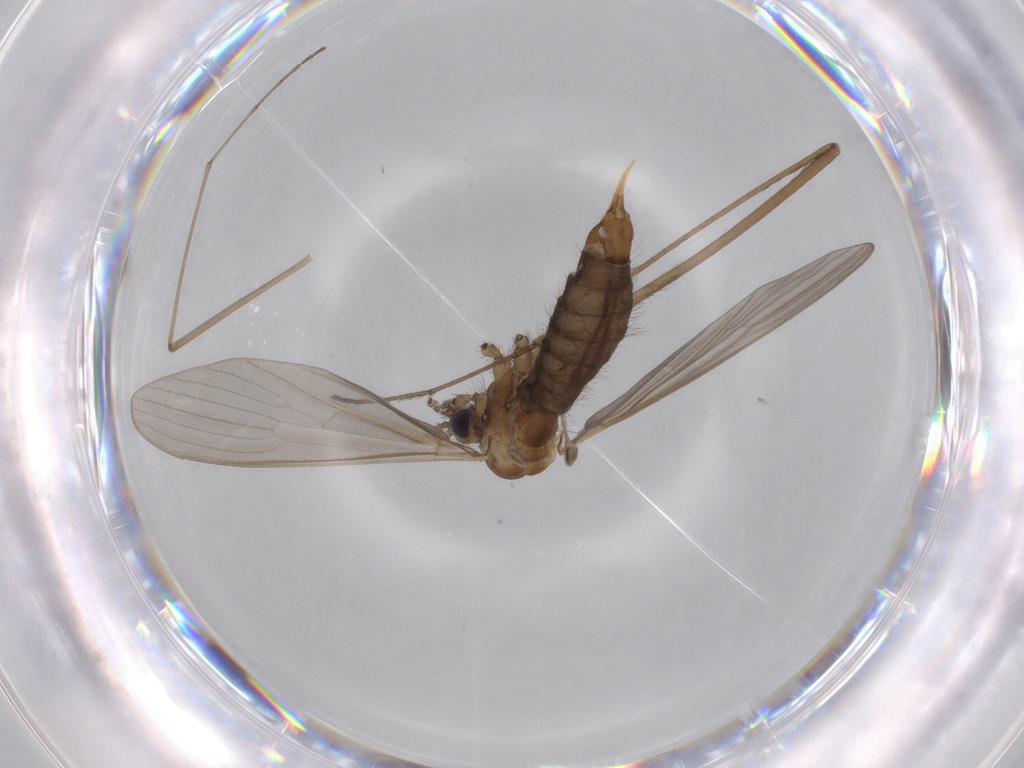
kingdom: Animalia
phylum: Arthropoda
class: Insecta
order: Diptera
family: Limoniidae
